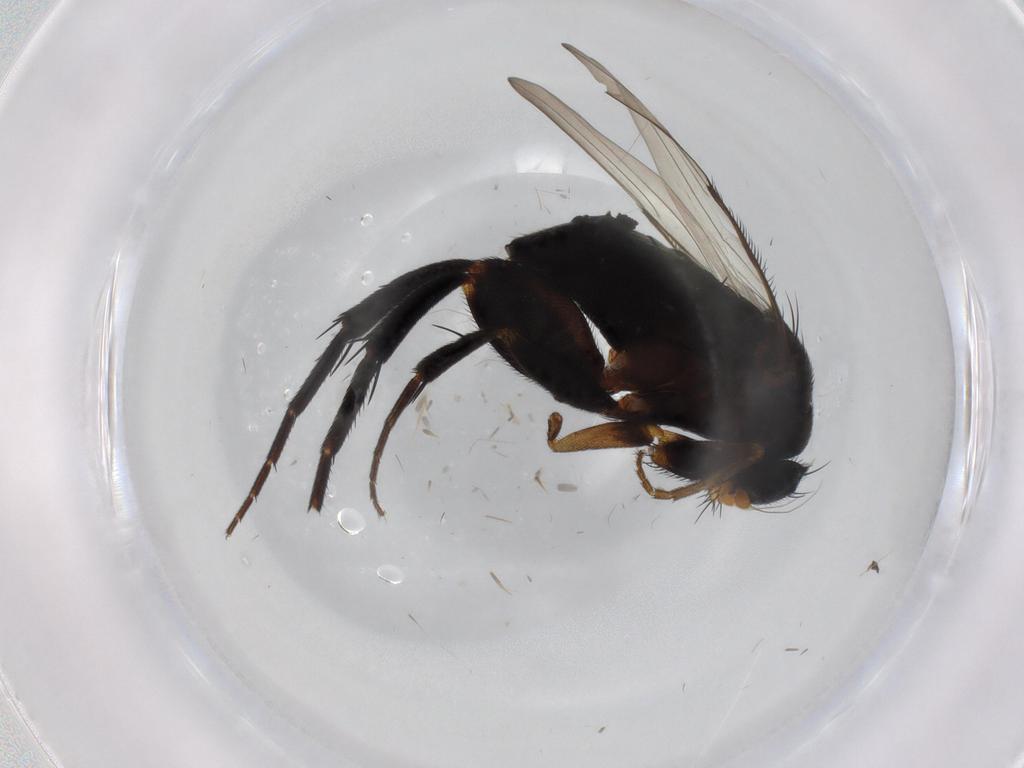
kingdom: Animalia
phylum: Arthropoda
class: Insecta
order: Diptera
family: Phoridae
